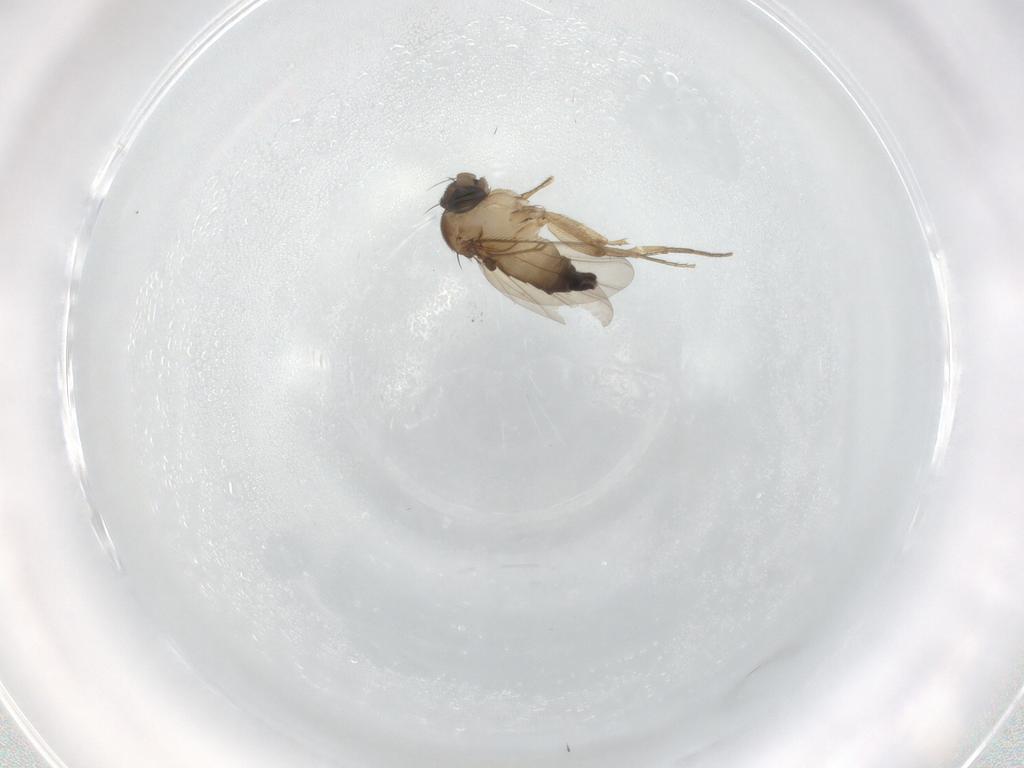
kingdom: Animalia
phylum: Arthropoda
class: Insecta
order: Diptera
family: Phoridae
